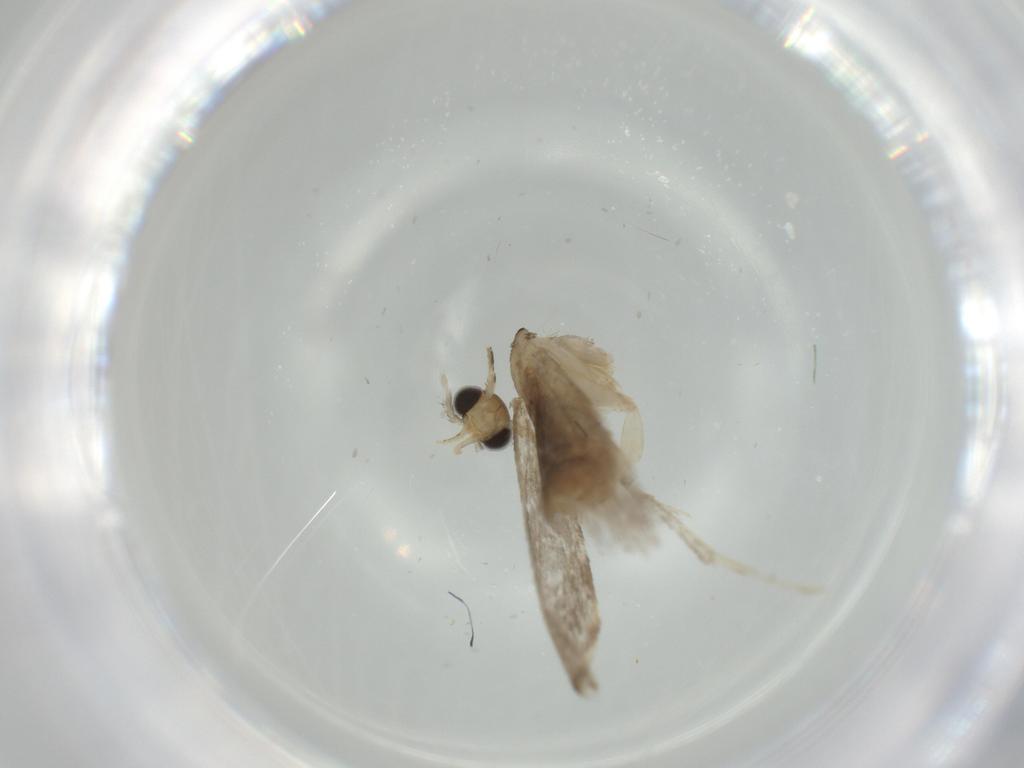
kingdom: Animalia
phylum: Arthropoda
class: Insecta
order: Lepidoptera
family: Tineidae
